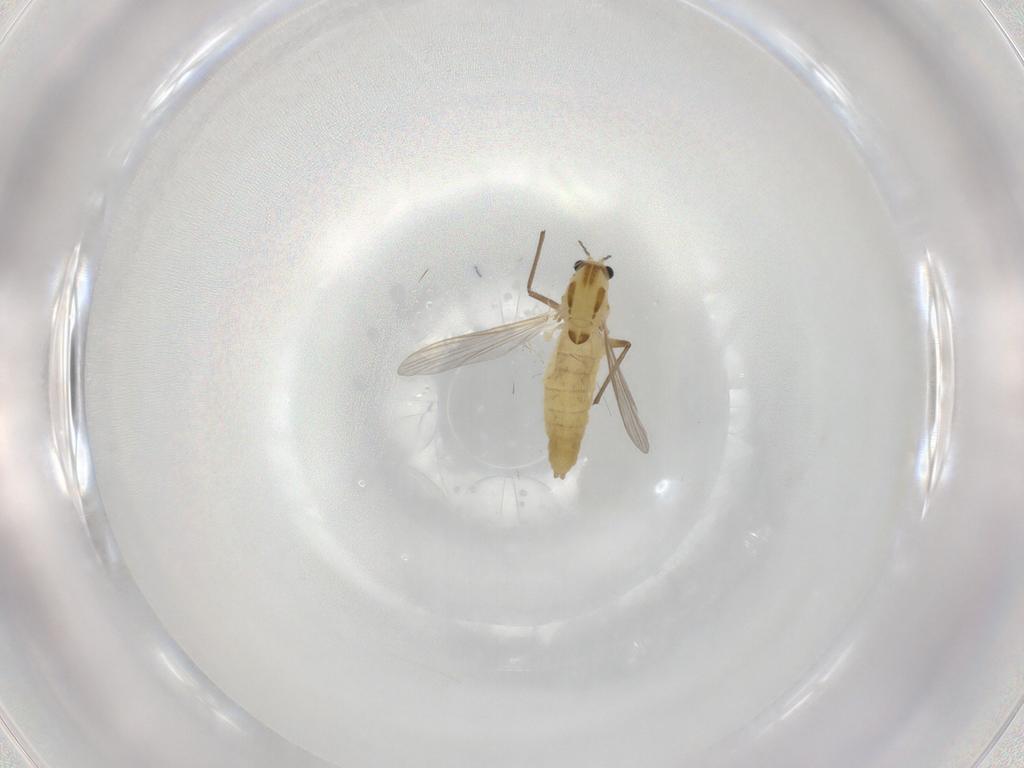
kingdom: Animalia
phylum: Arthropoda
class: Insecta
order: Diptera
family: Chironomidae
